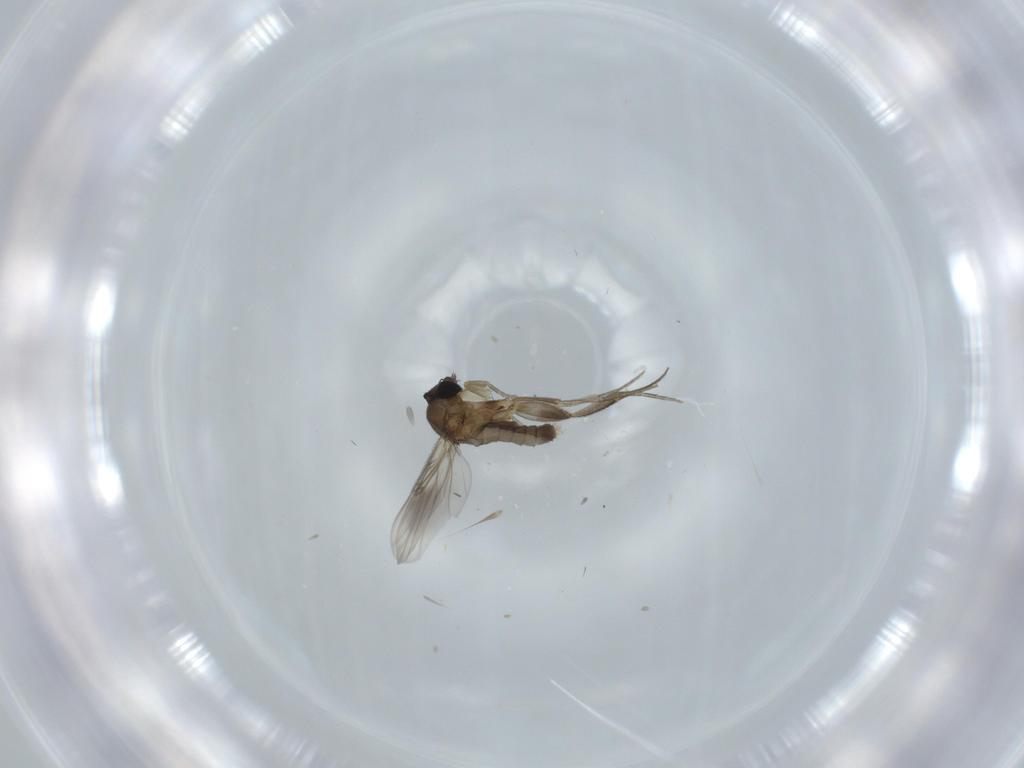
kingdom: Animalia
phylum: Arthropoda
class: Insecta
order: Diptera
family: Phoridae
